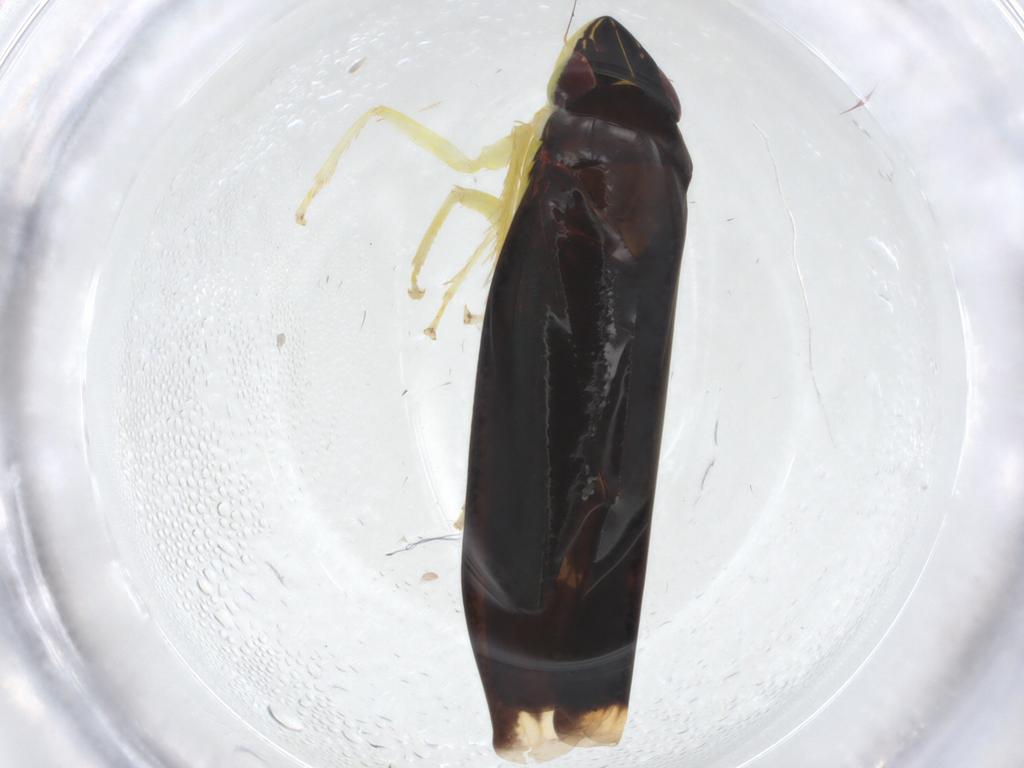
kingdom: Animalia
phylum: Arthropoda
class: Insecta
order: Hemiptera
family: Cicadellidae
